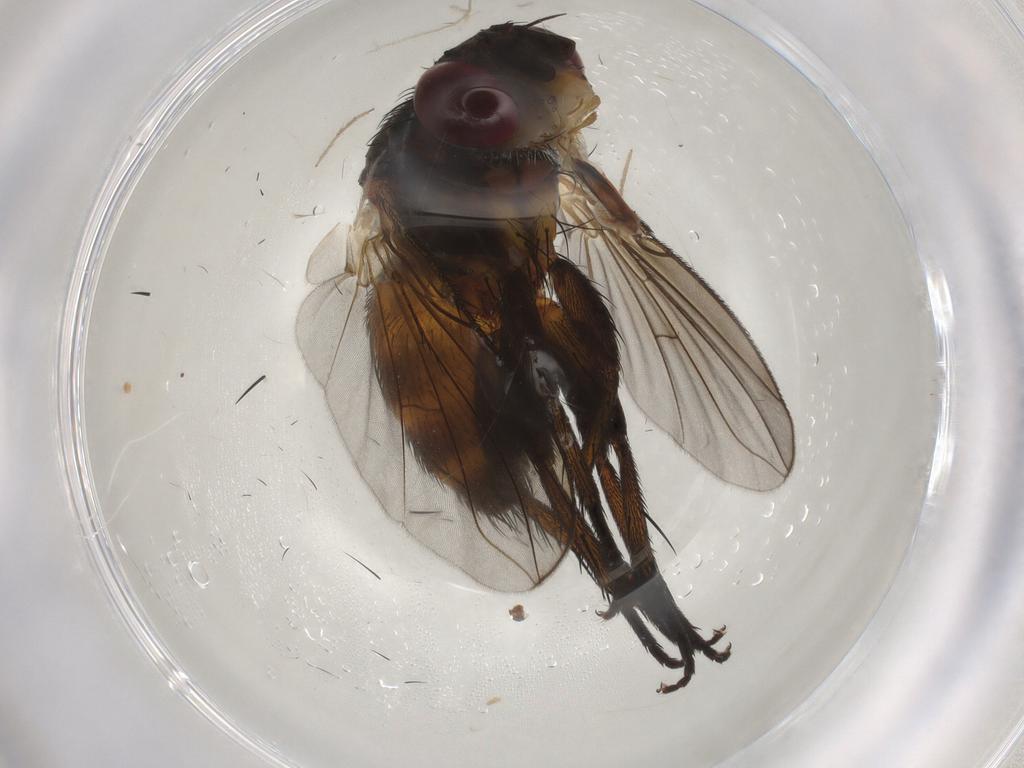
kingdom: Animalia
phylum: Arthropoda
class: Insecta
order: Diptera
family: Tachinidae
